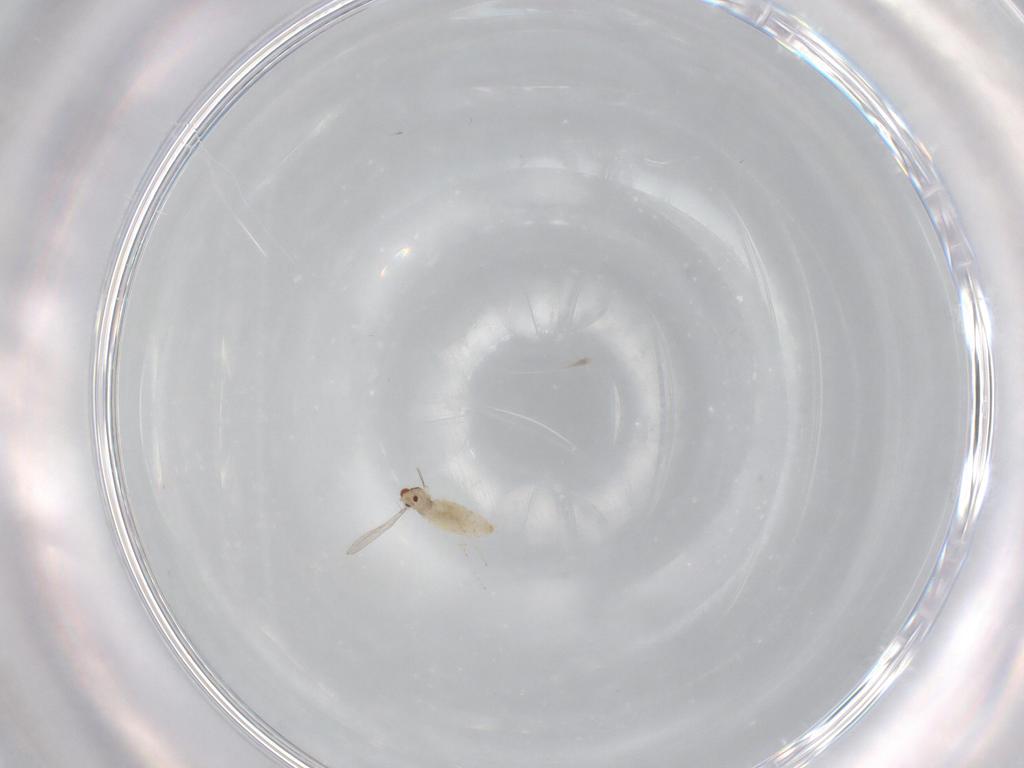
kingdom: Animalia
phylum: Arthropoda
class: Insecta
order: Diptera
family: Cecidomyiidae
